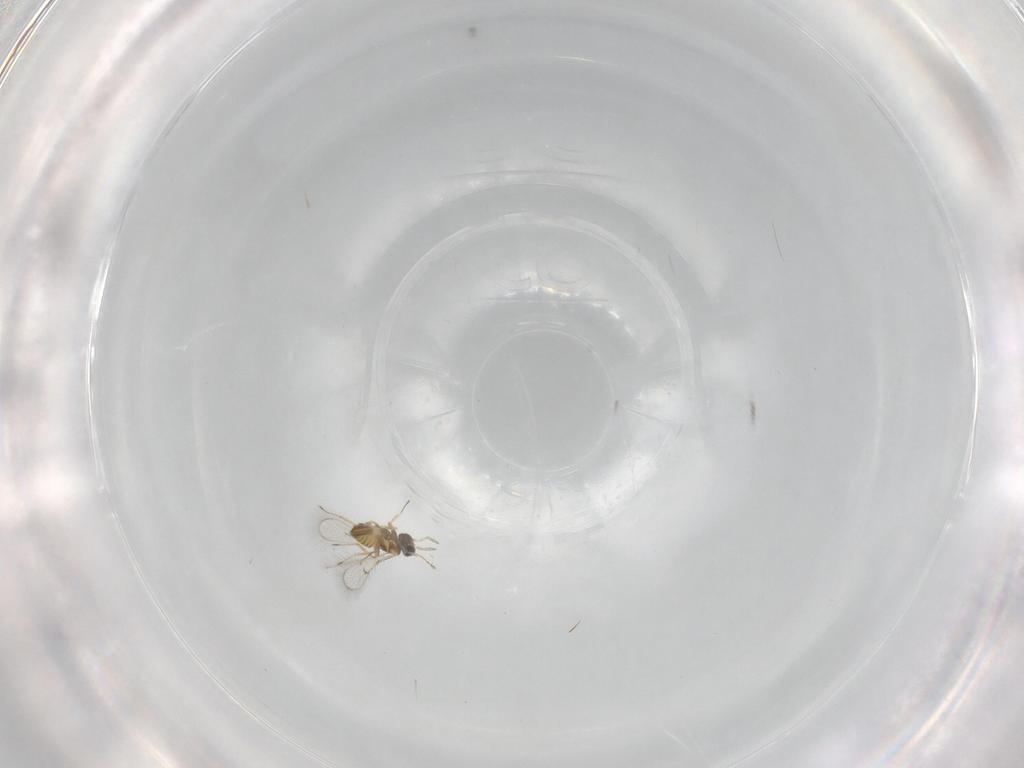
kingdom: Animalia
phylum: Arthropoda
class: Insecta
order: Hymenoptera
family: Trichogrammatidae
